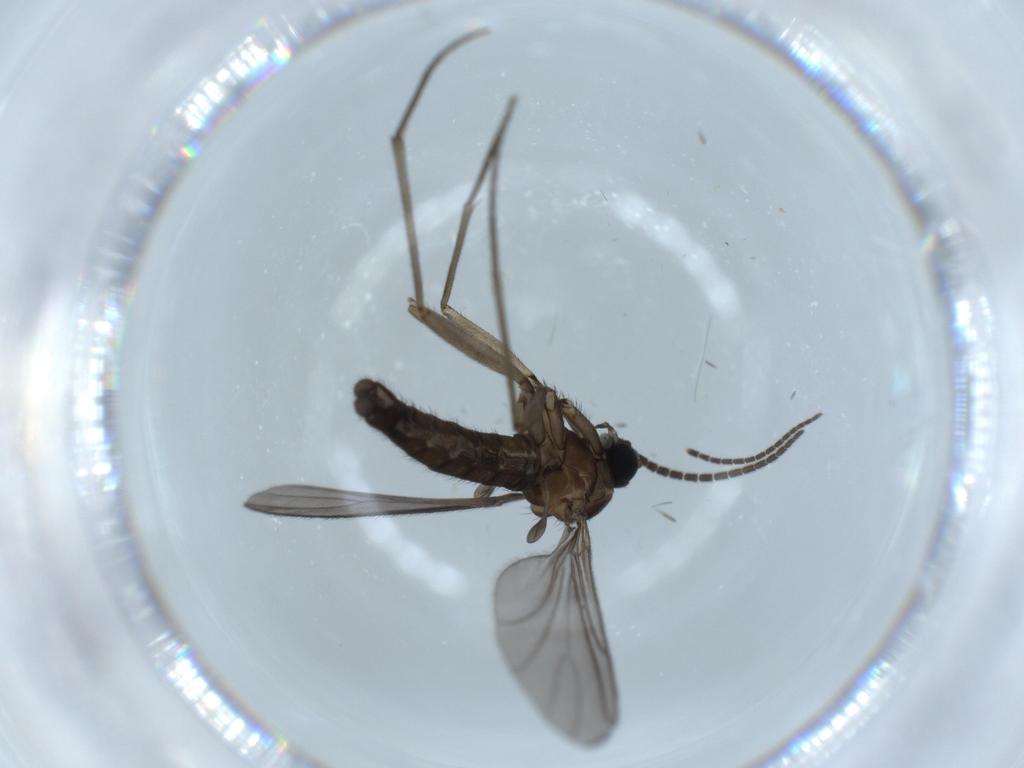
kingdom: Animalia
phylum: Arthropoda
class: Insecta
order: Diptera
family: Sciaridae
